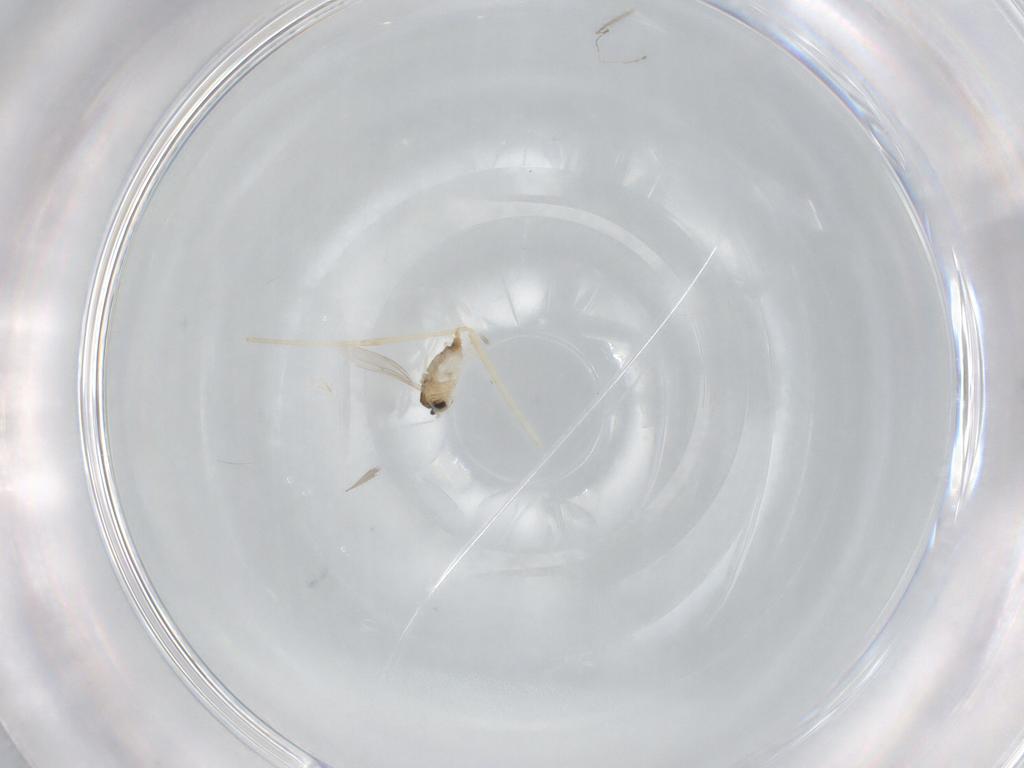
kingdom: Animalia
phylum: Arthropoda
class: Insecta
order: Diptera
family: Cecidomyiidae
